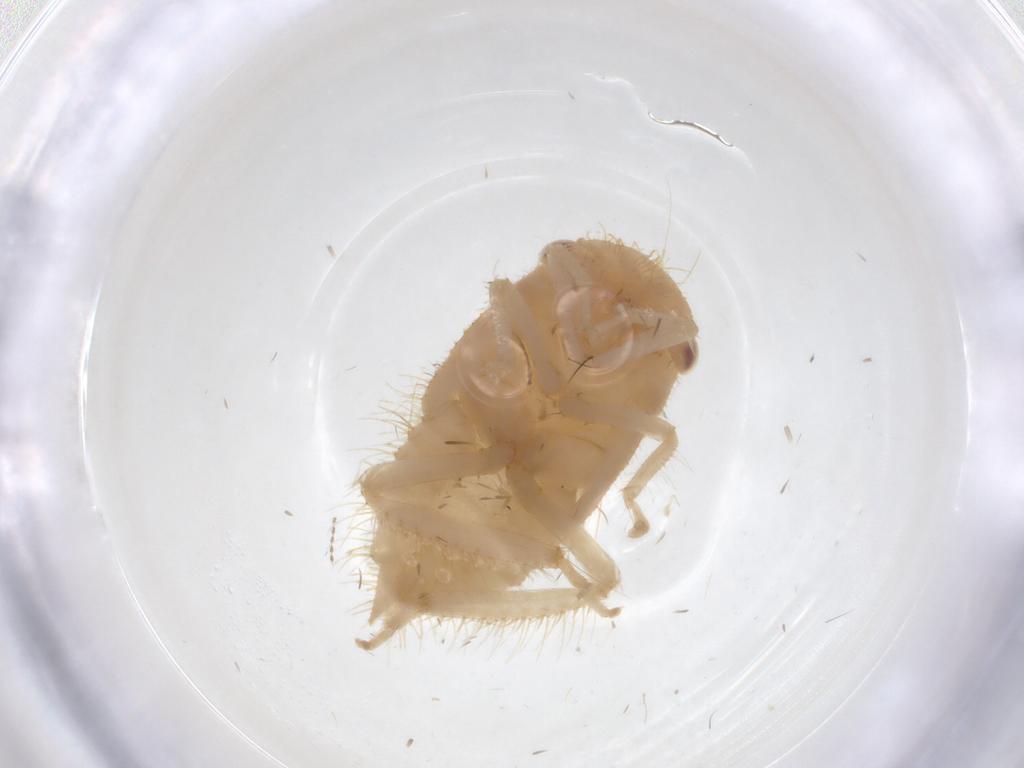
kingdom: Animalia
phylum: Arthropoda
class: Insecta
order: Hemiptera
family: Cicadellidae
